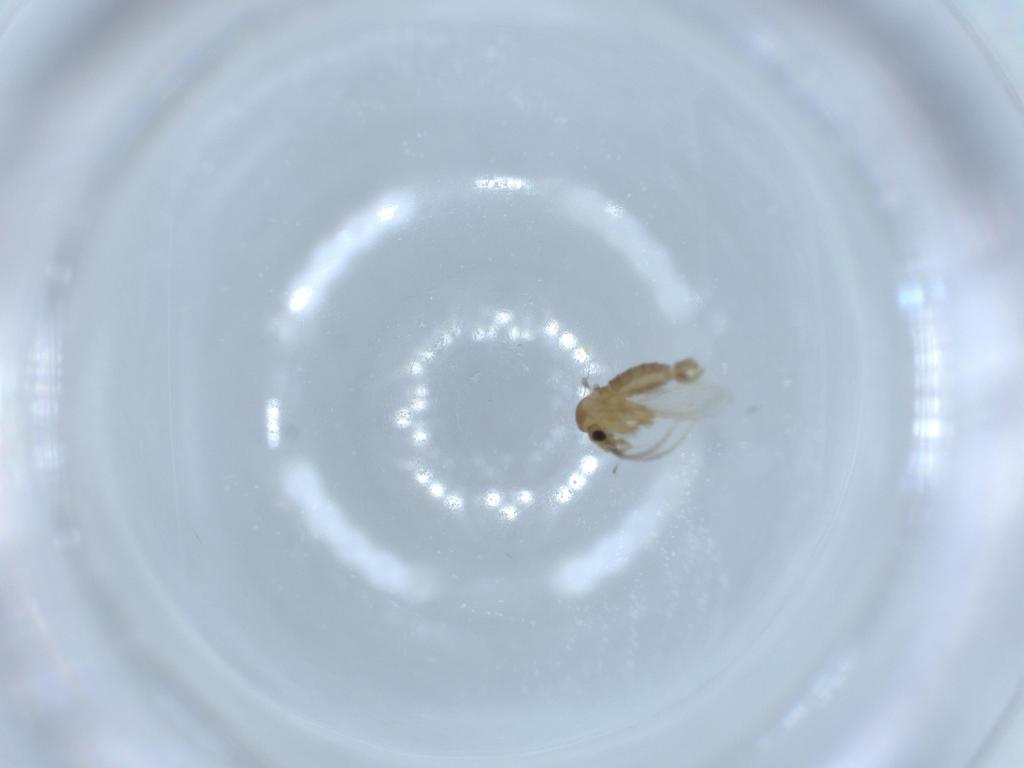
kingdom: Animalia
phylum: Arthropoda
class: Insecta
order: Diptera
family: Psychodidae
